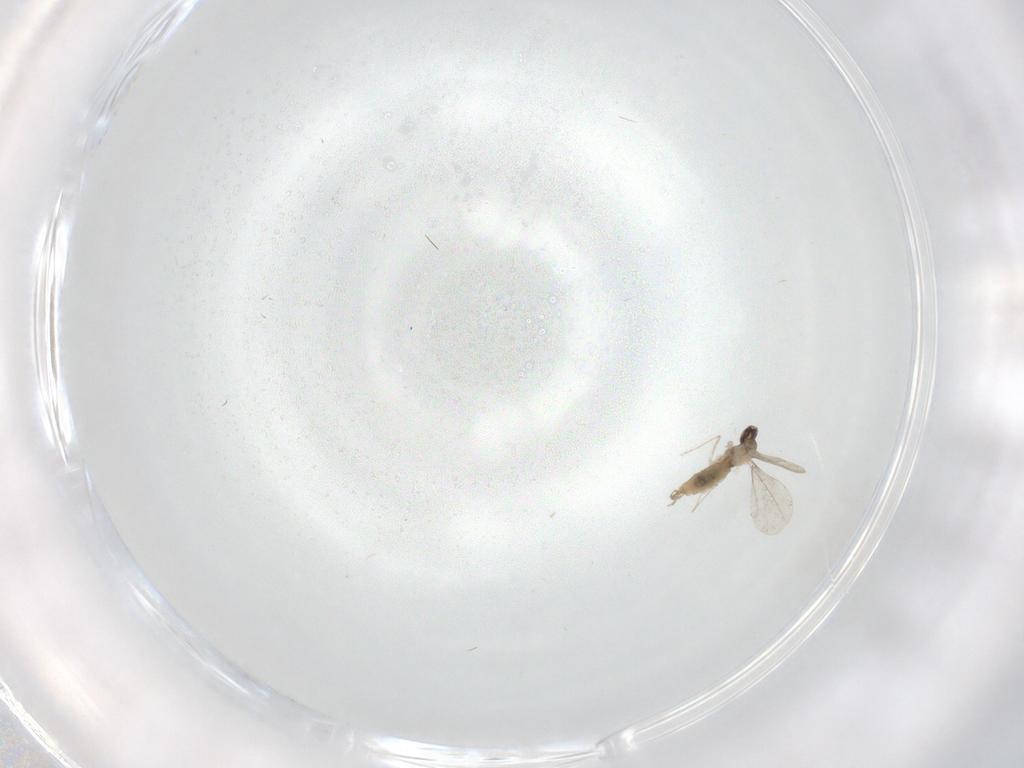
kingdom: Animalia
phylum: Arthropoda
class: Insecta
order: Diptera
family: Cecidomyiidae
